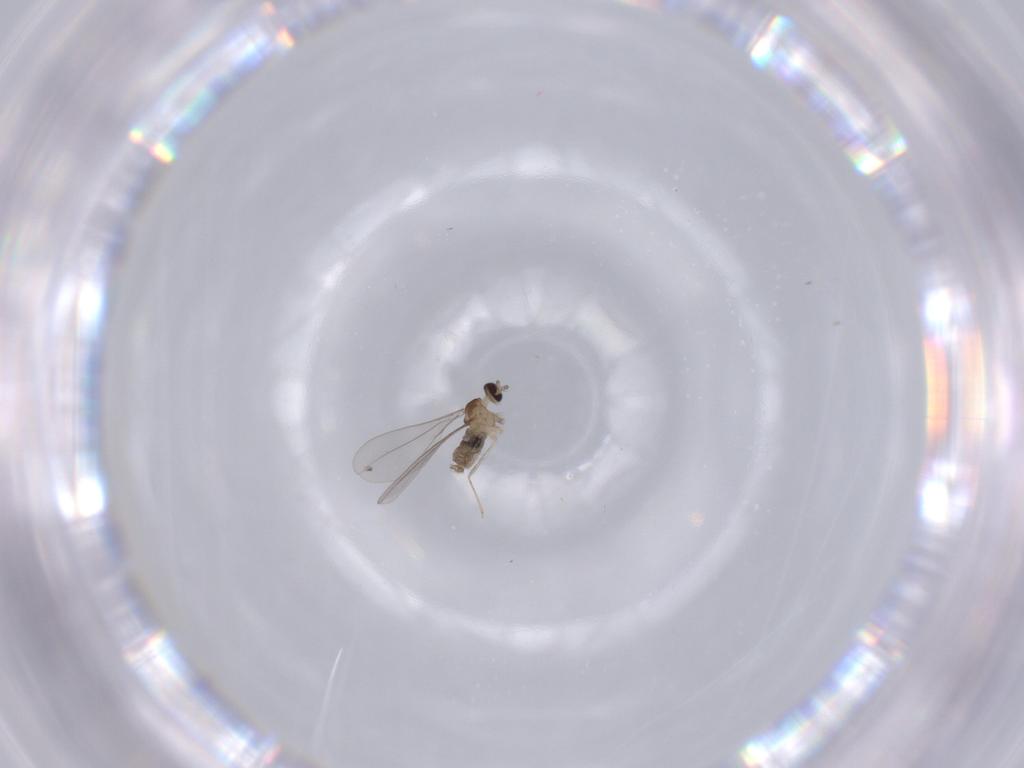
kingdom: Animalia
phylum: Arthropoda
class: Insecta
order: Diptera
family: Cecidomyiidae
